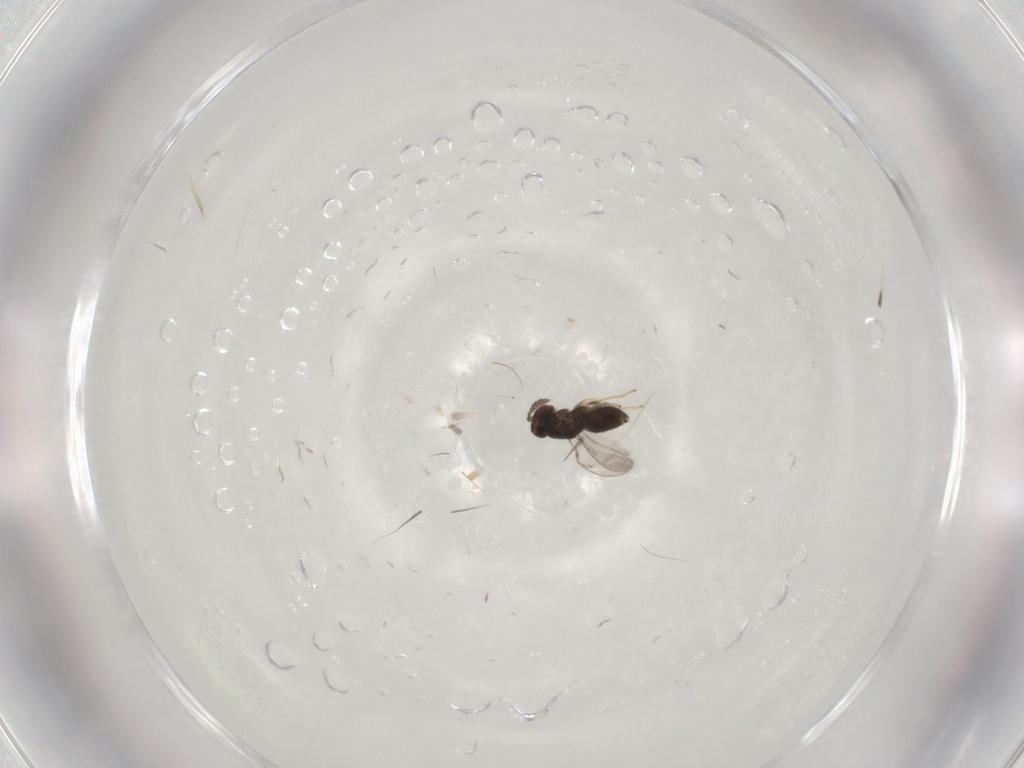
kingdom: Animalia
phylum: Arthropoda
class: Insecta
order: Hymenoptera
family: Eulophidae
